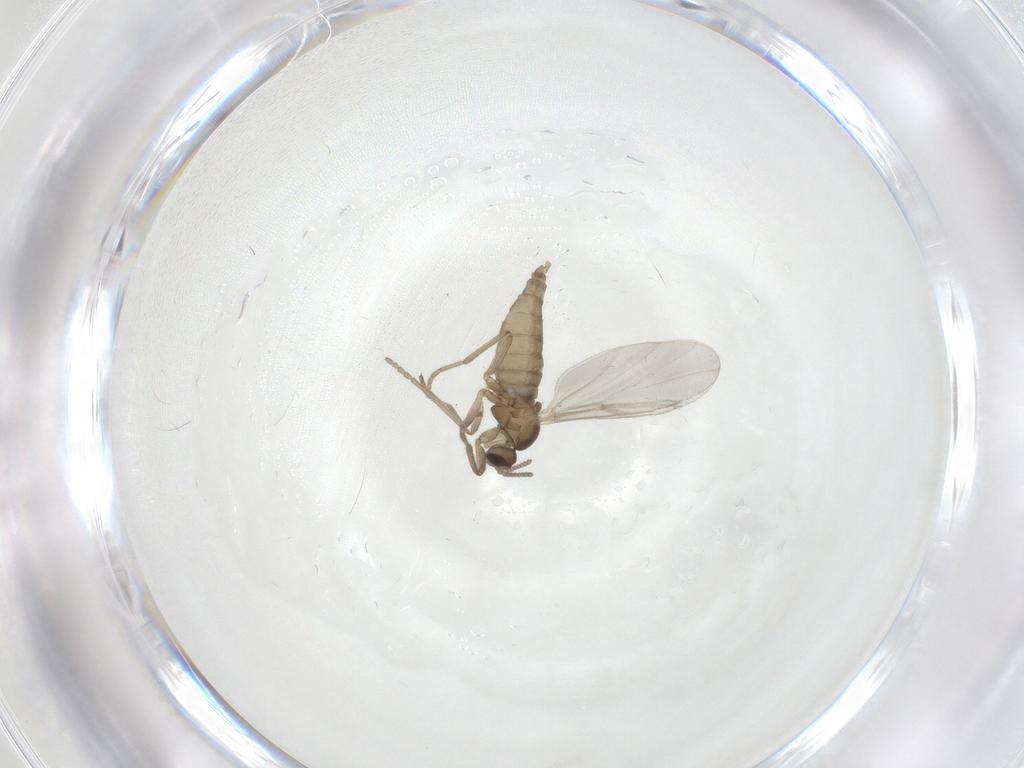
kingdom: Animalia
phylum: Arthropoda
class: Insecta
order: Diptera
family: Cecidomyiidae
